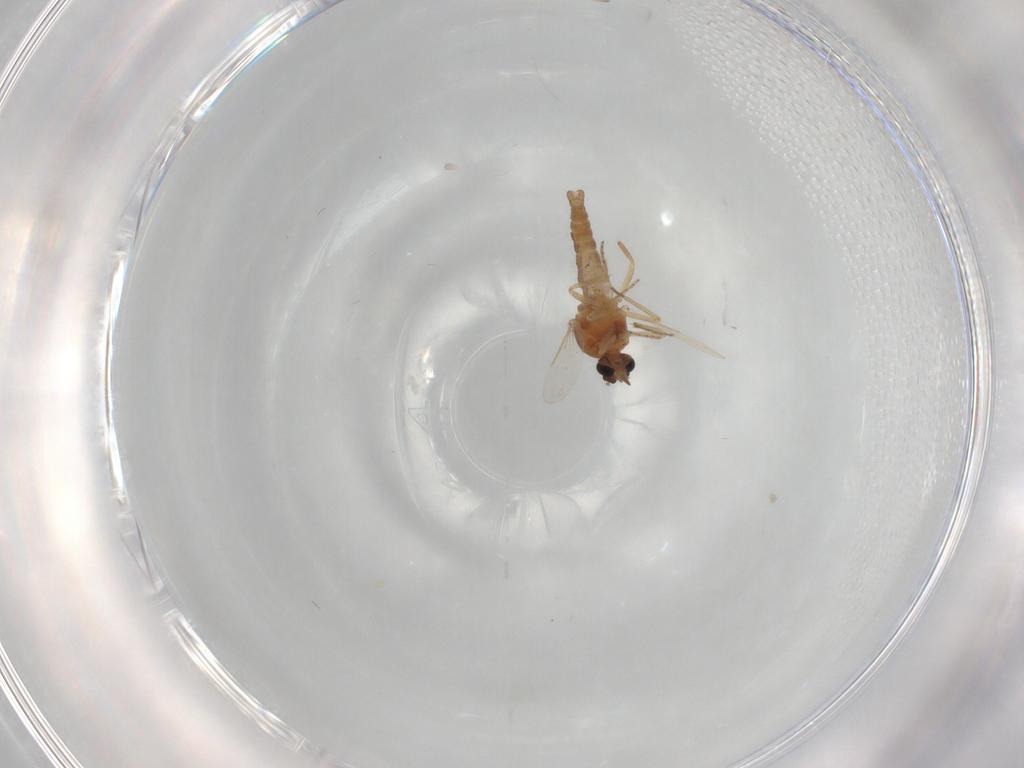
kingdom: Animalia
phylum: Arthropoda
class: Insecta
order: Diptera
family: Ceratopogonidae
